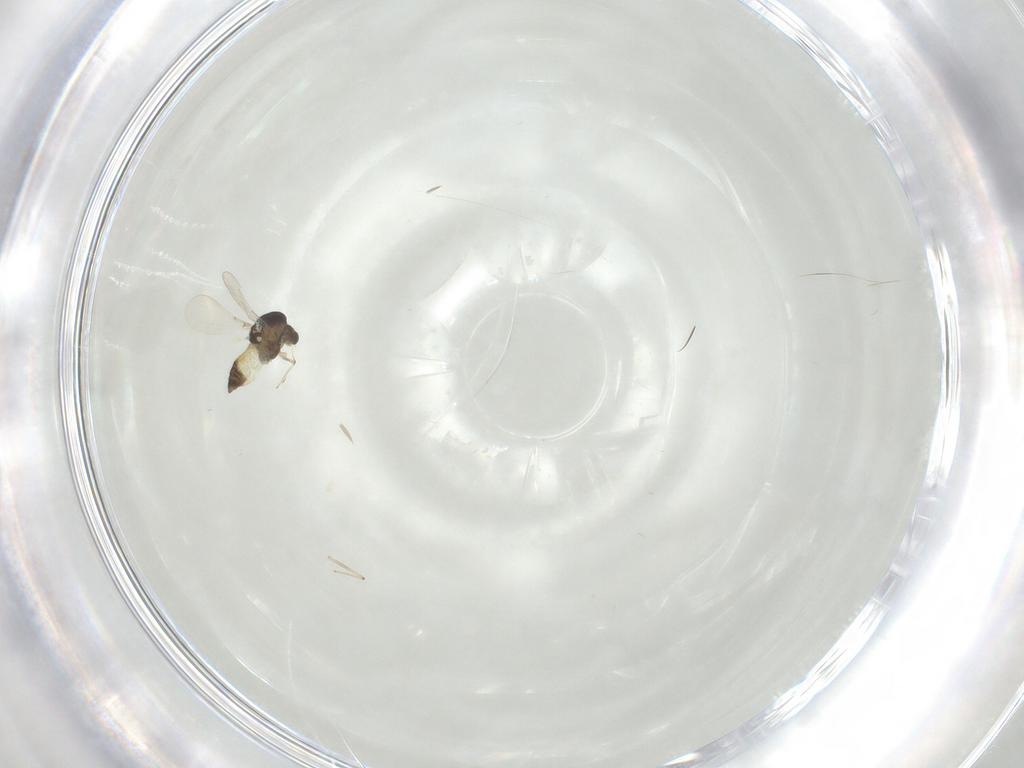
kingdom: Animalia
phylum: Arthropoda
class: Insecta
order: Diptera
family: Chironomidae
